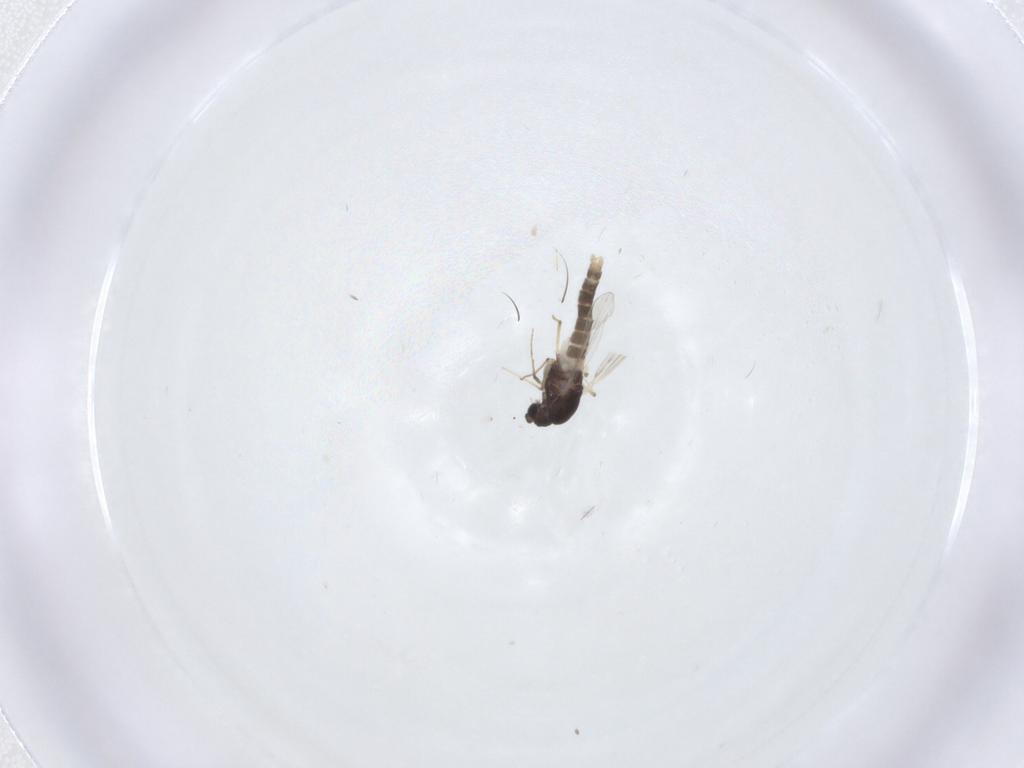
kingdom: Animalia
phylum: Arthropoda
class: Insecta
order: Diptera
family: Chironomidae
